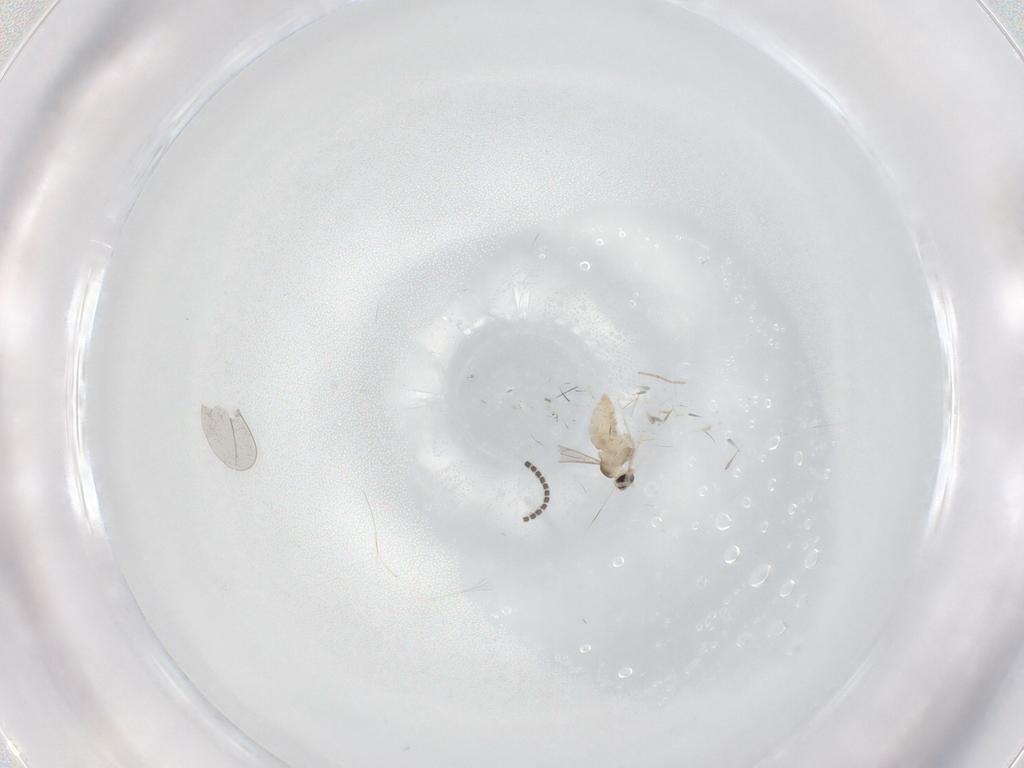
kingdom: Animalia
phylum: Arthropoda
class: Insecta
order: Diptera
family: Cecidomyiidae
